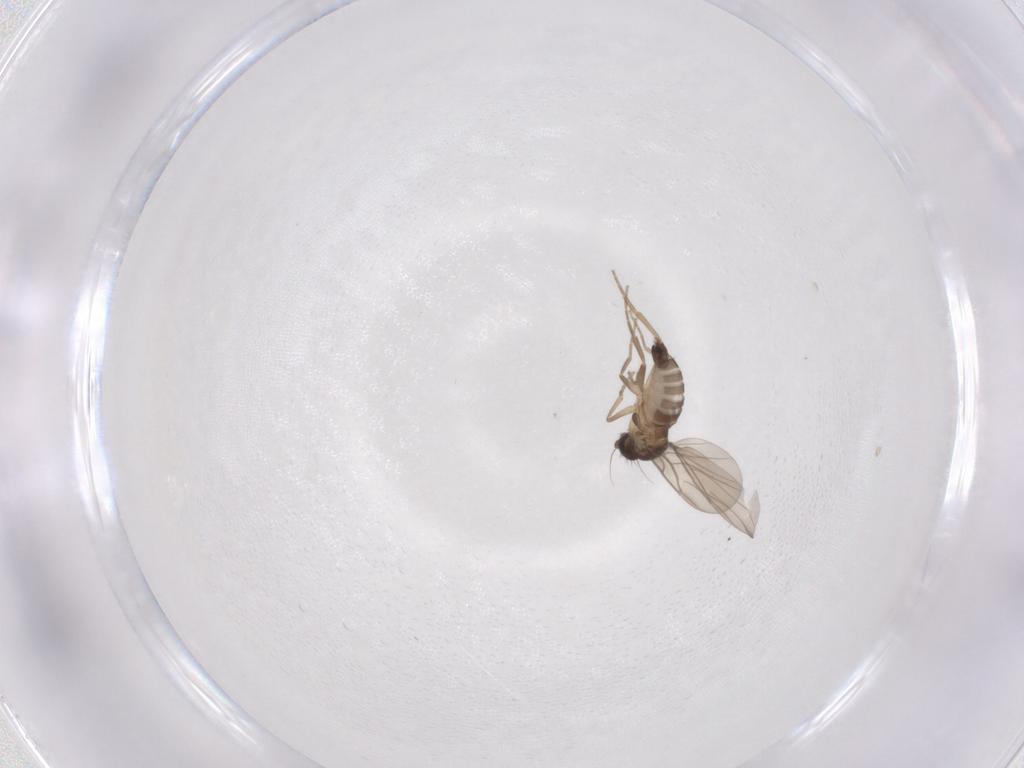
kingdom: Animalia
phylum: Arthropoda
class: Insecta
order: Diptera
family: Phoridae
